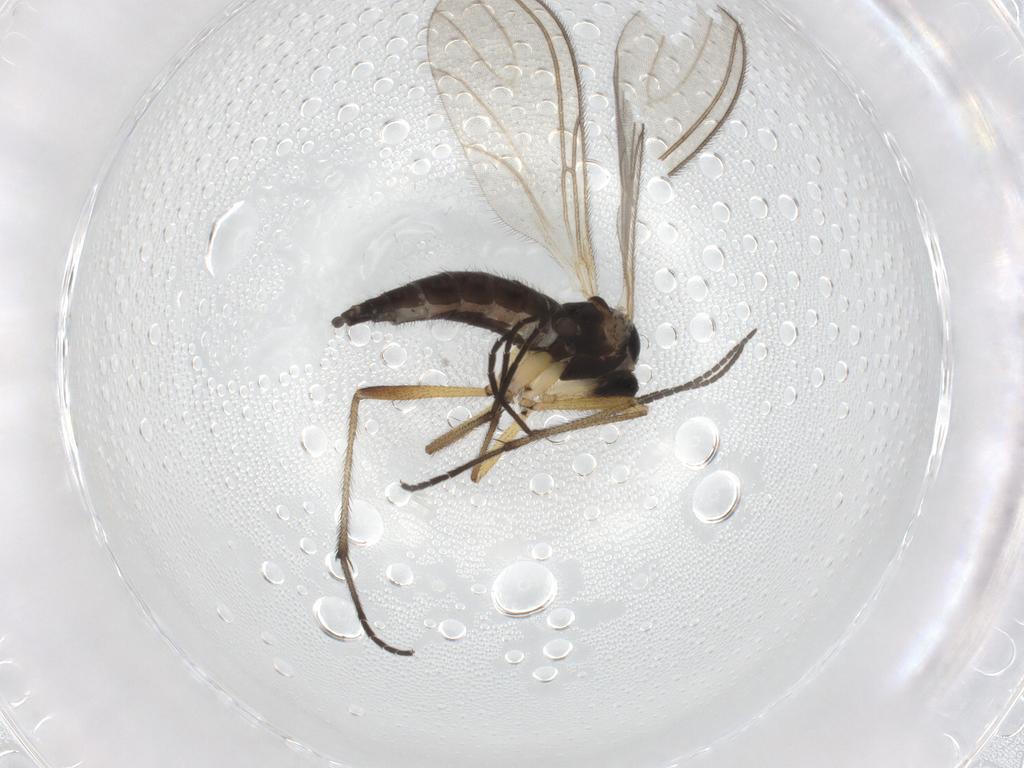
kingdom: Animalia
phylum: Arthropoda
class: Insecta
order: Diptera
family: Sciaridae
